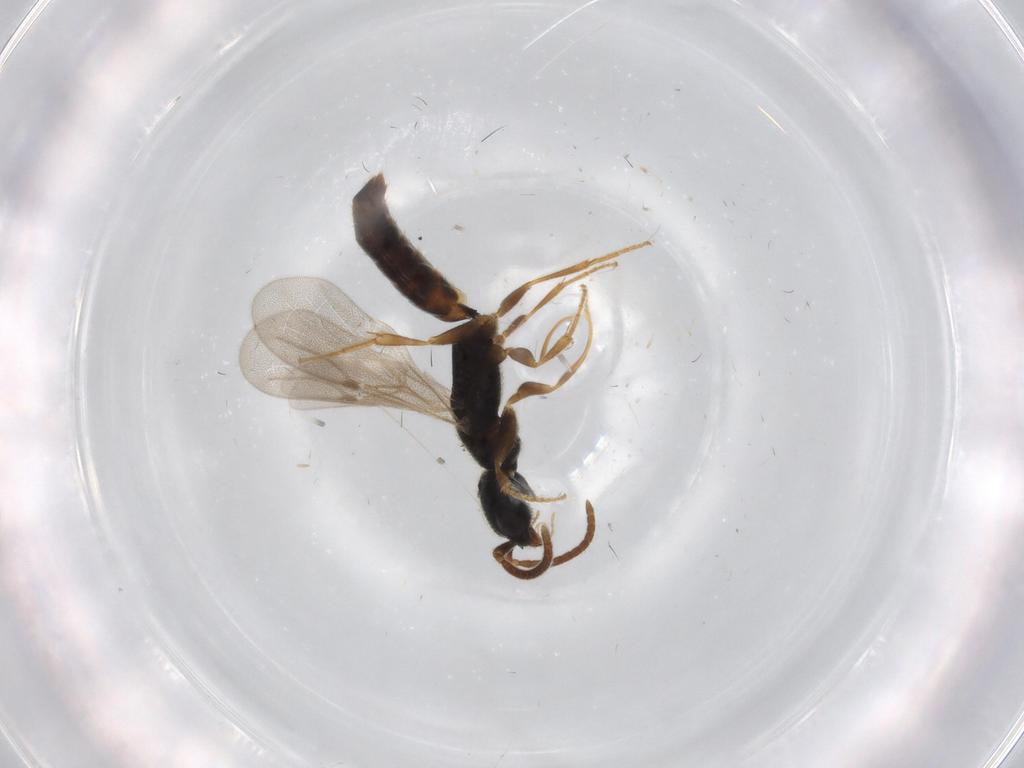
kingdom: Animalia
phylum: Arthropoda
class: Insecta
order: Hymenoptera
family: Bethylidae
